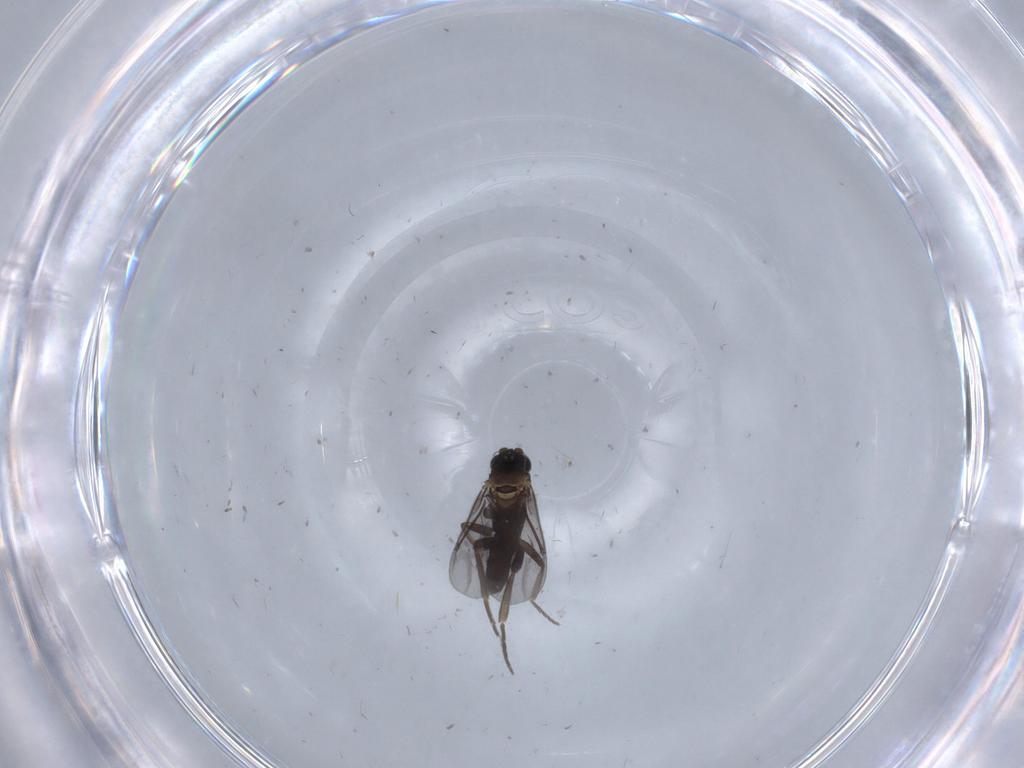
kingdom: Animalia
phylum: Arthropoda
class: Insecta
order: Diptera
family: Phoridae
